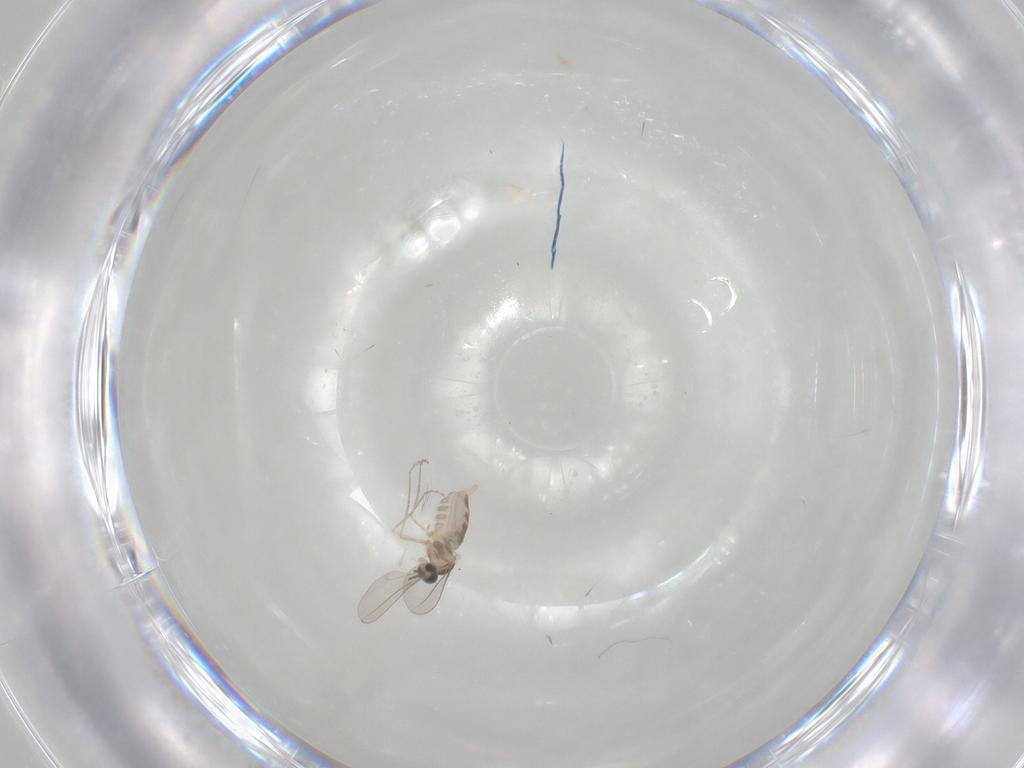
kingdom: Animalia
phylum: Arthropoda
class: Insecta
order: Diptera
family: Cecidomyiidae
